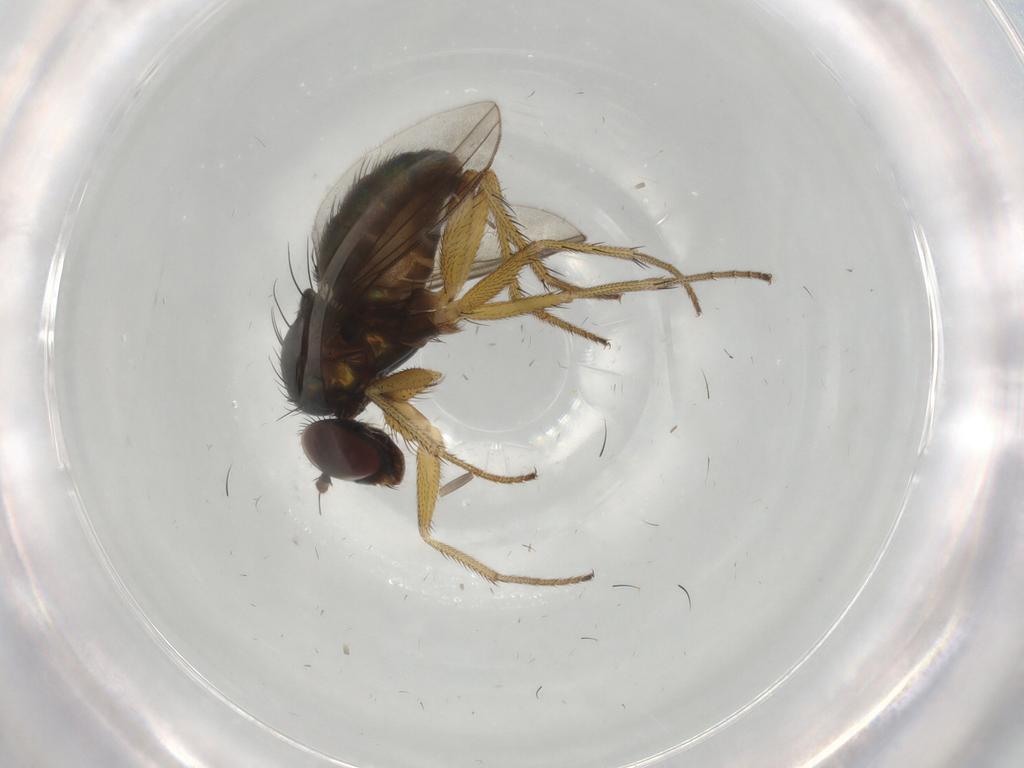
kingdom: Animalia
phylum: Arthropoda
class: Insecta
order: Diptera
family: Dolichopodidae
